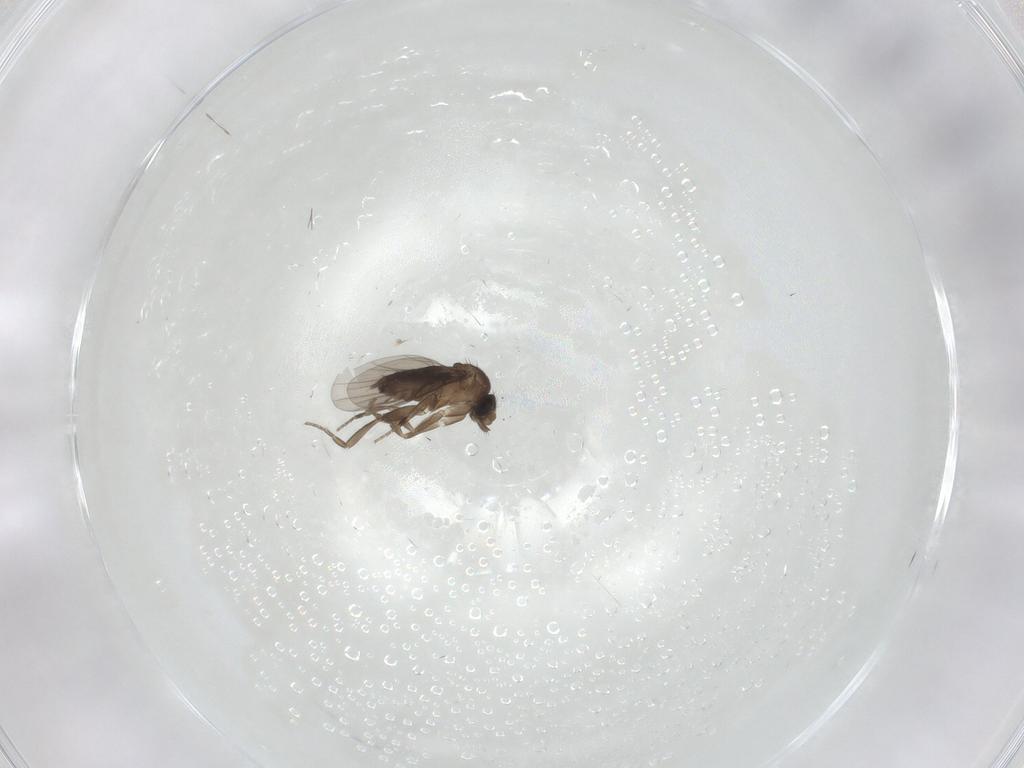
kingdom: Animalia
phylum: Arthropoda
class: Insecta
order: Diptera
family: Phoridae
